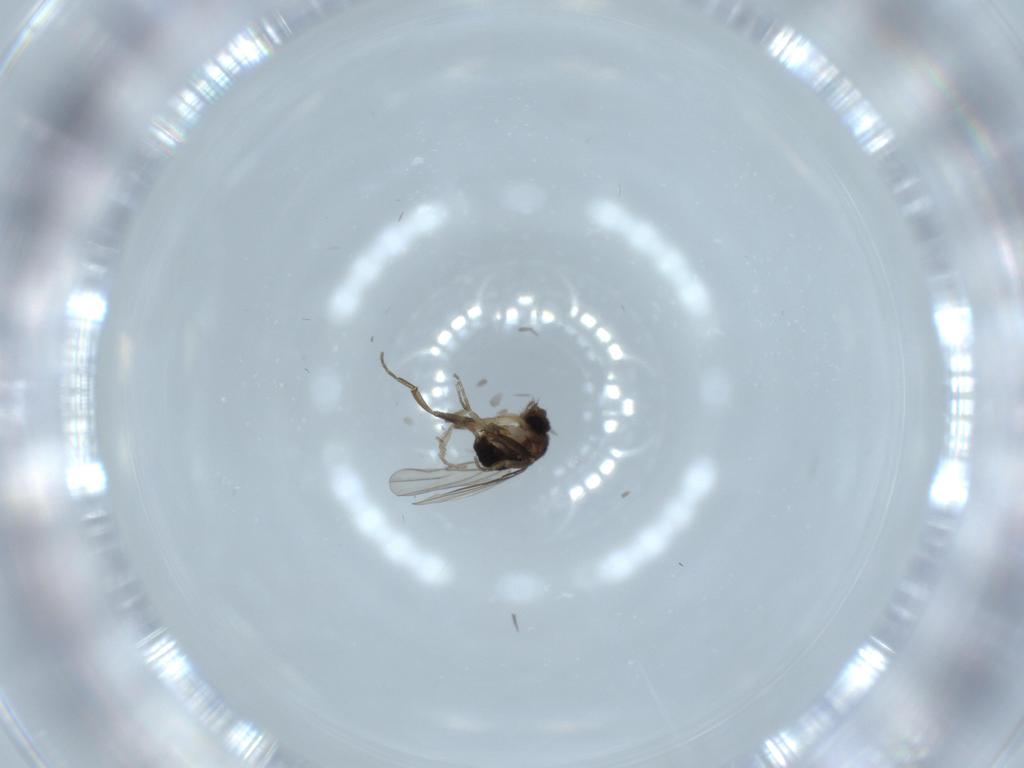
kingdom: Animalia
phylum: Arthropoda
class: Insecta
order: Diptera
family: Phoridae
